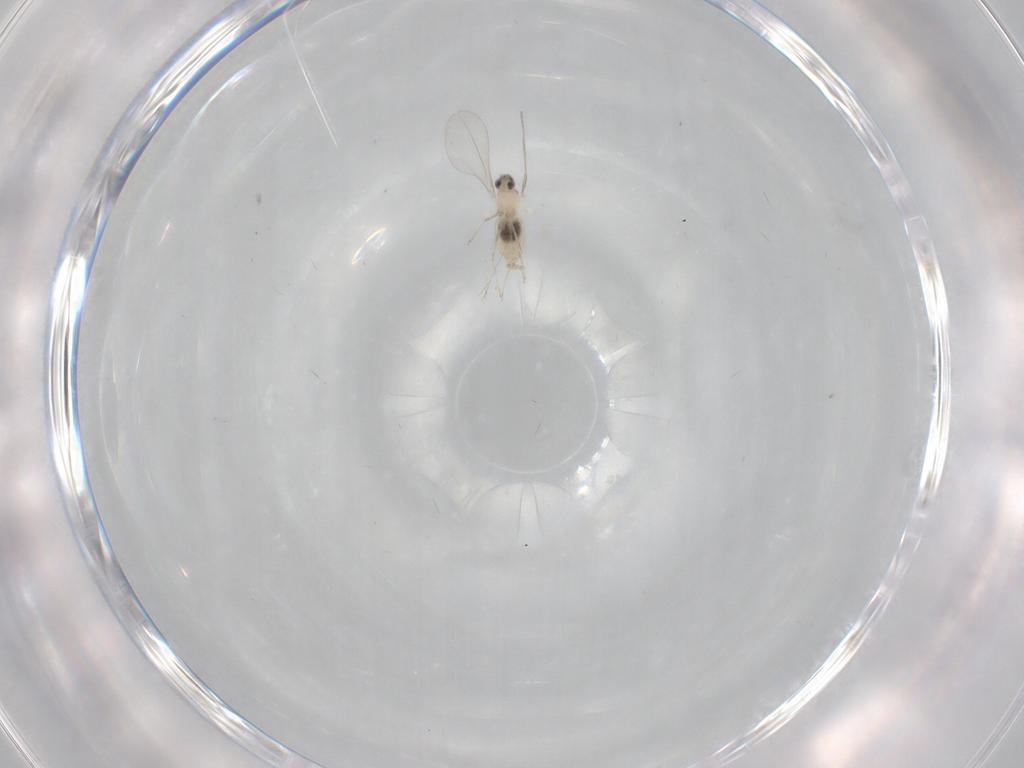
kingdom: Animalia
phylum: Arthropoda
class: Insecta
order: Diptera
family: Cecidomyiidae
